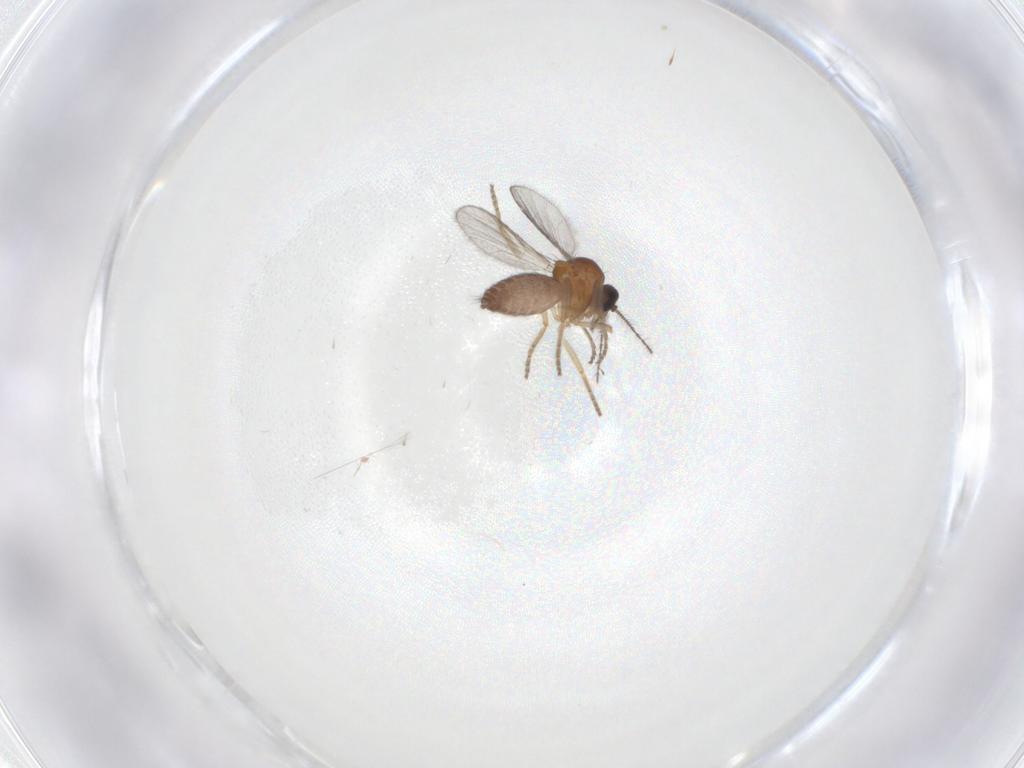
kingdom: Animalia
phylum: Arthropoda
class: Insecta
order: Diptera
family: Ceratopogonidae
